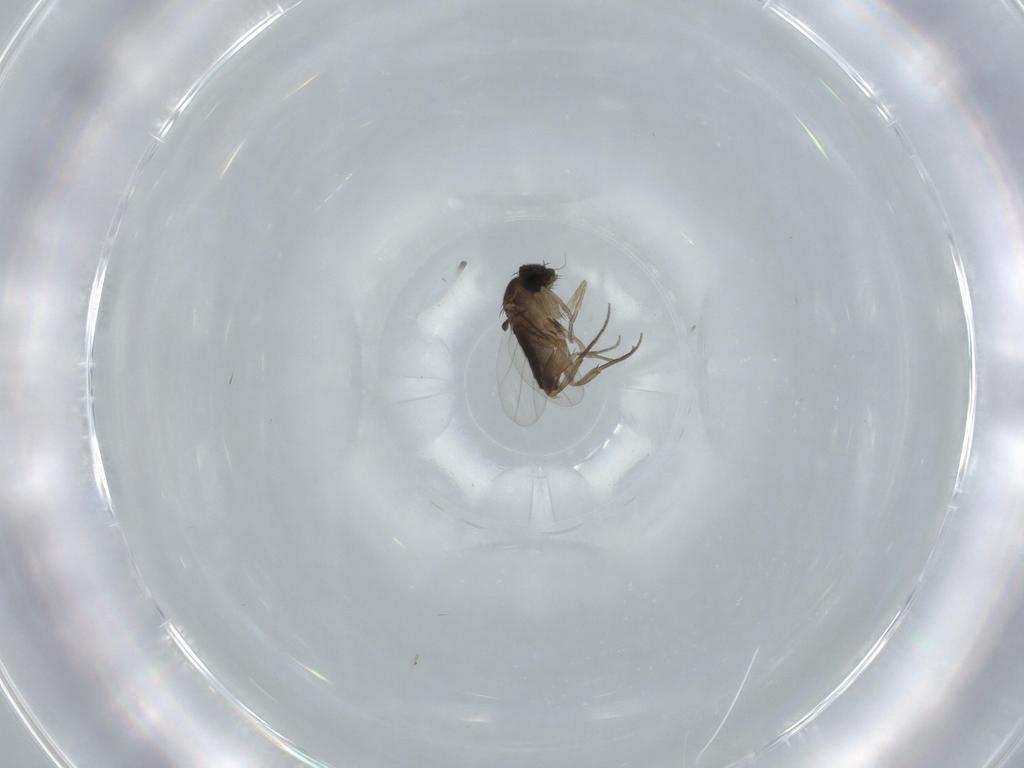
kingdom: Animalia
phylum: Arthropoda
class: Insecta
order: Diptera
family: Phoridae
